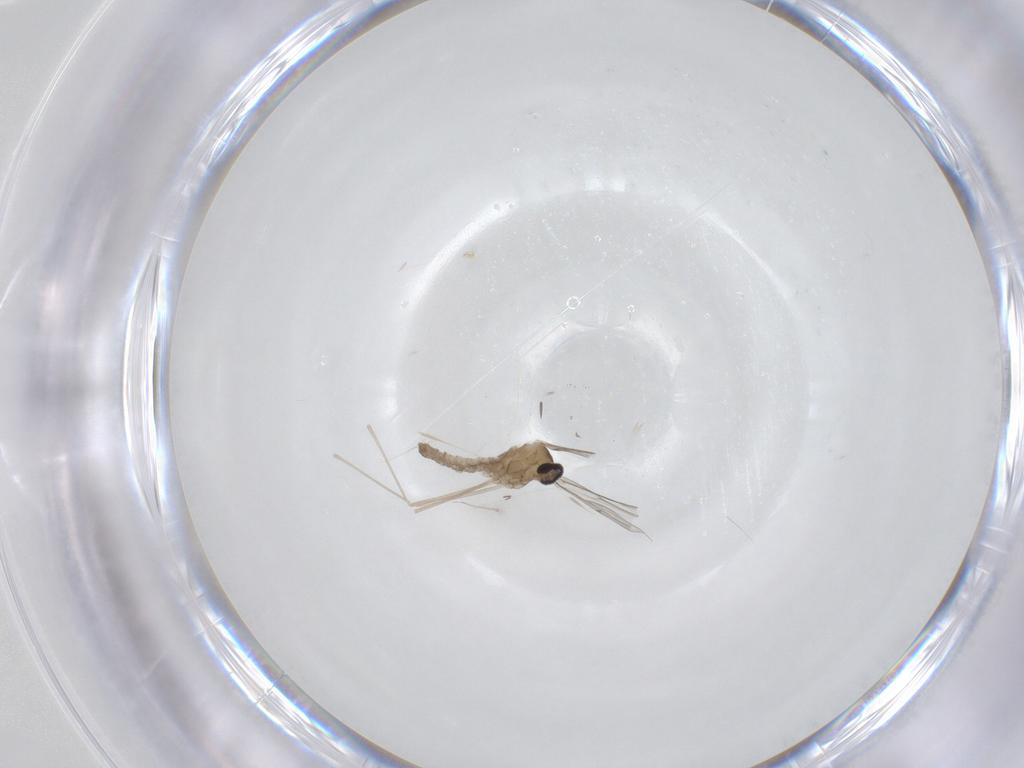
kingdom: Animalia
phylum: Arthropoda
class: Insecta
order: Diptera
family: Cecidomyiidae
